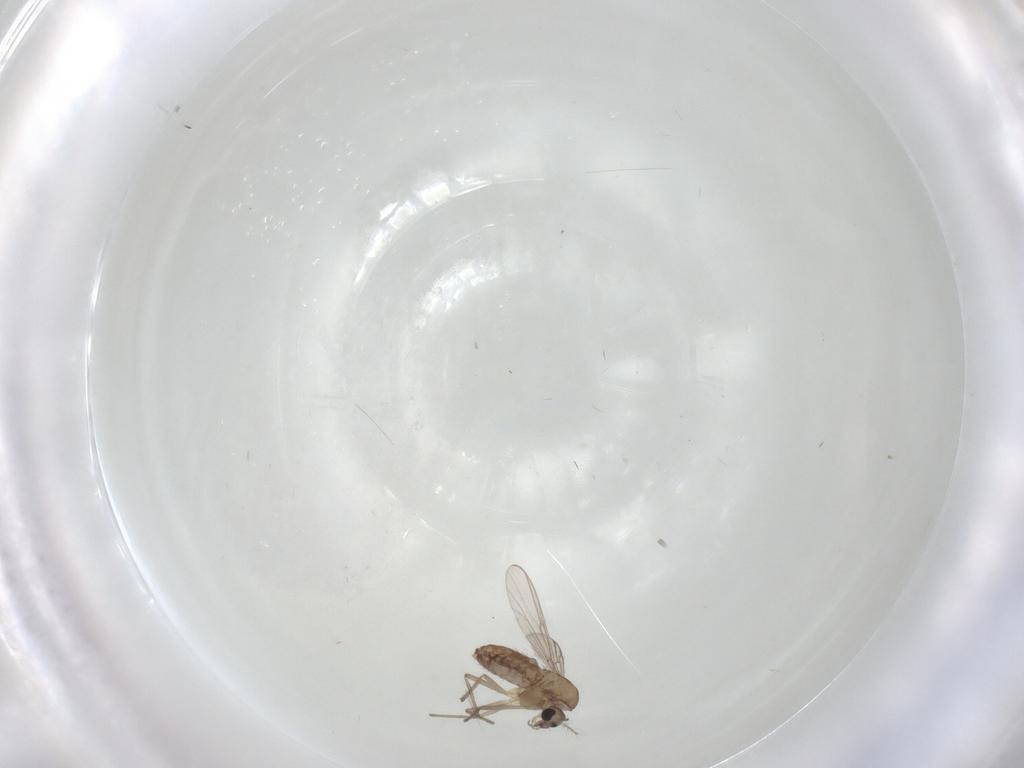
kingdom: Animalia
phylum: Arthropoda
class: Insecta
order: Diptera
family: Chironomidae
